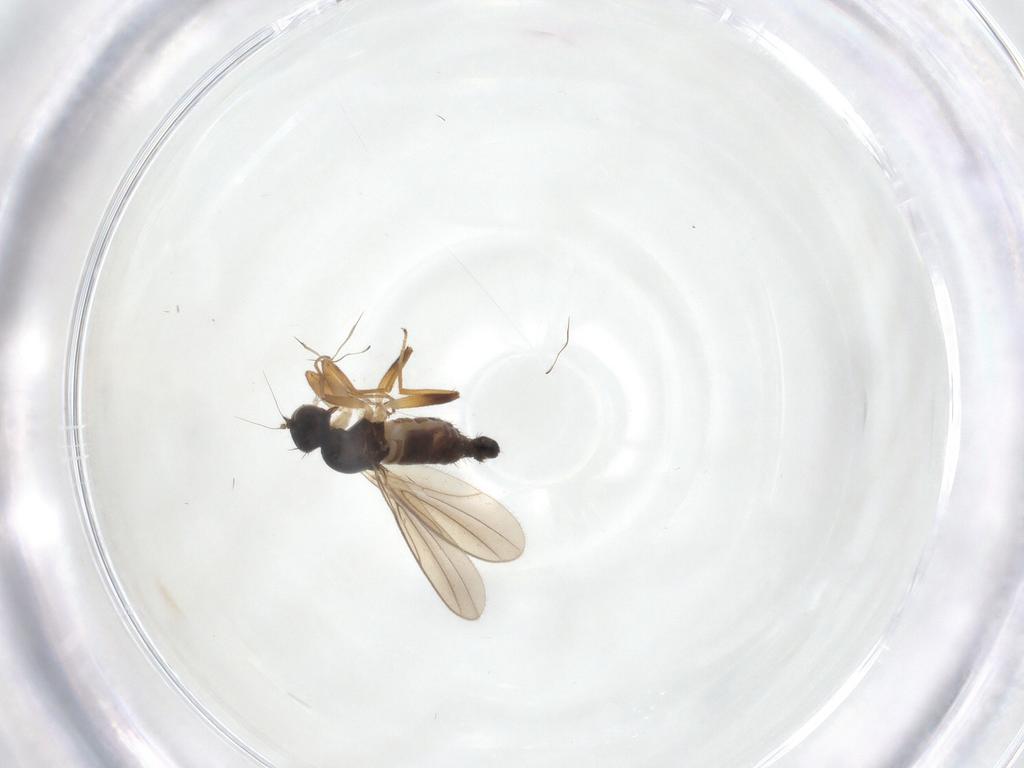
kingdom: Animalia
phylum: Arthropoda
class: Insecta
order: Diptera
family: Hybotidae
